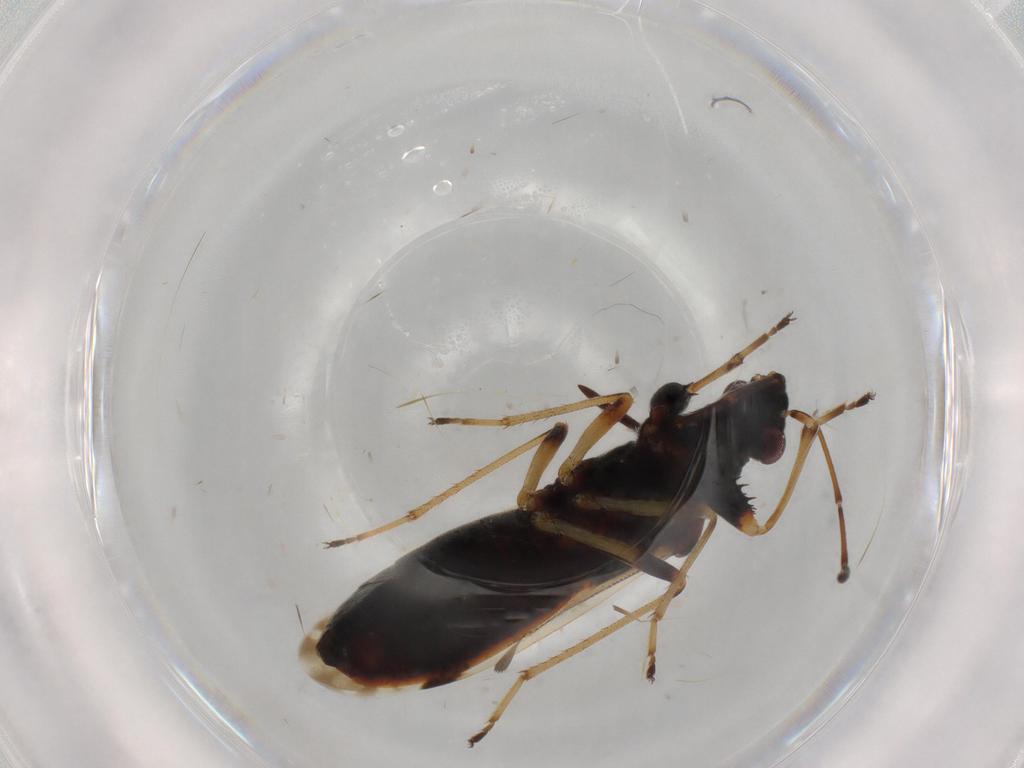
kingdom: Animalia
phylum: Arthropoda
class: Insecta
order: Hemiptera
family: Rhyparochromidae
